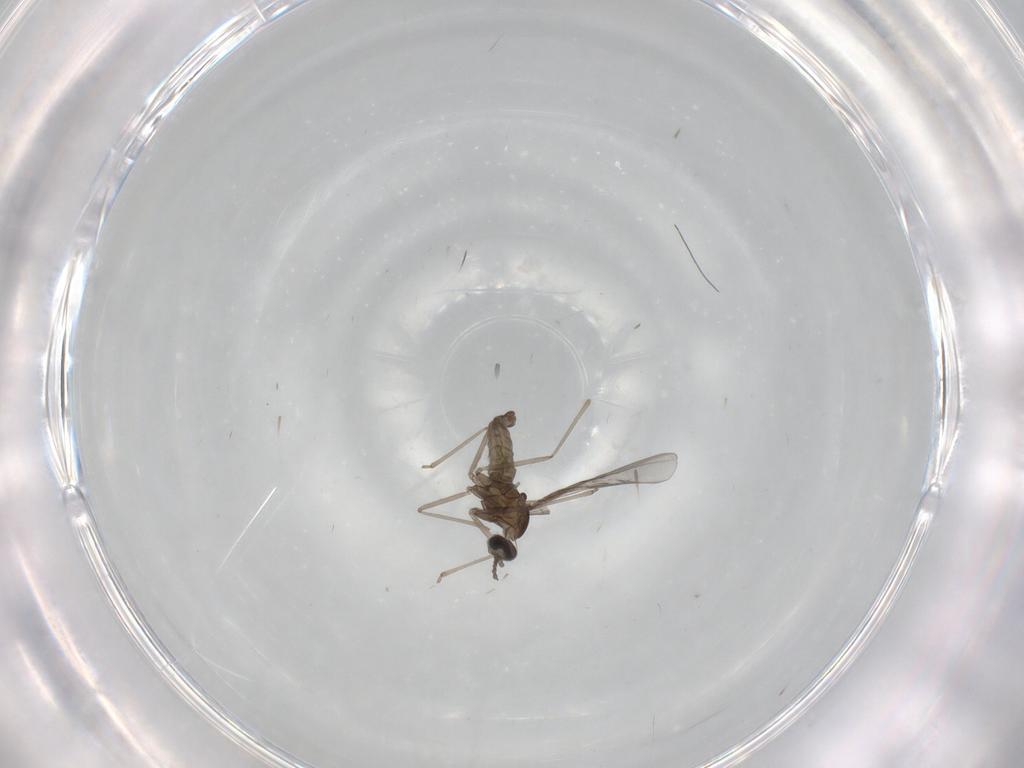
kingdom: Animalia
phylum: Arthropoda
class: Insecta
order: Diptera
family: Cecidomyiidae
